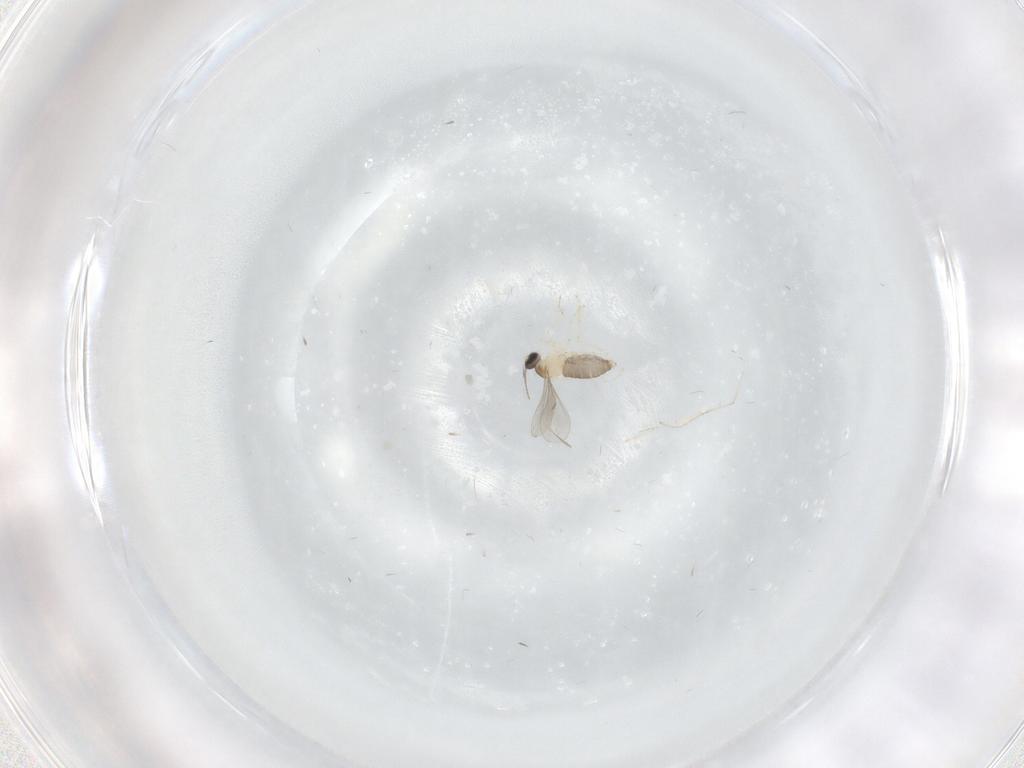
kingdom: Animalia
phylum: Arthropoda
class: Insecta
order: Diptera
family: Cecidomyiidae
